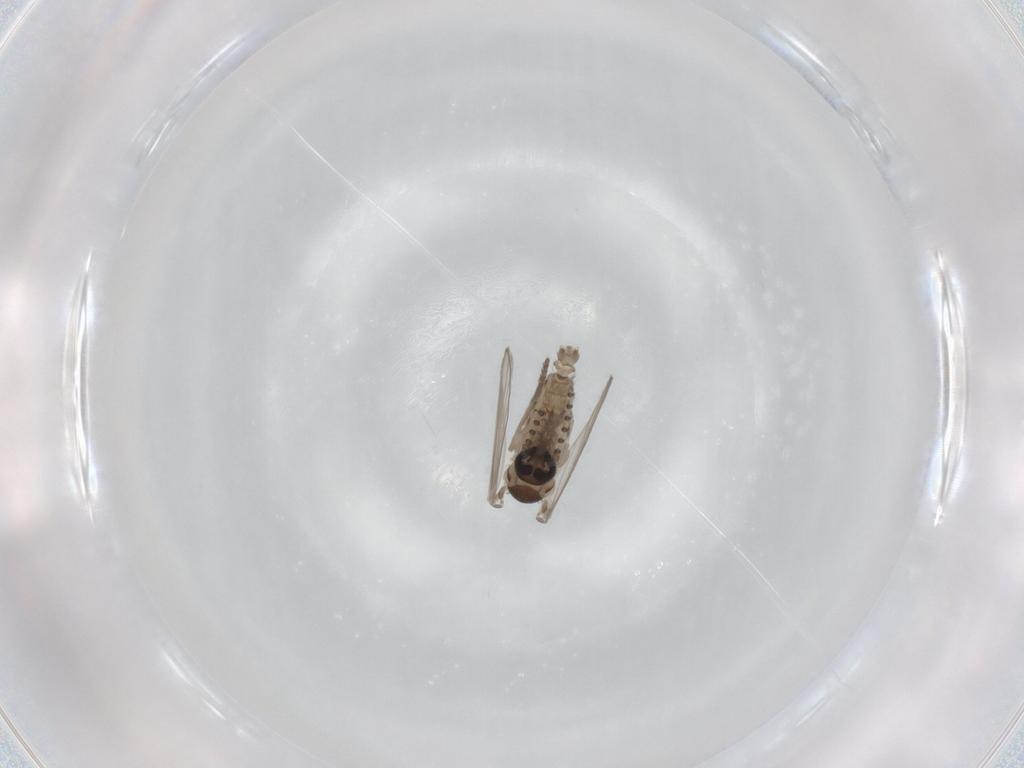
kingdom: Animalia
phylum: Arthropoda
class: Insecta
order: Diptera
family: Psychodidae
